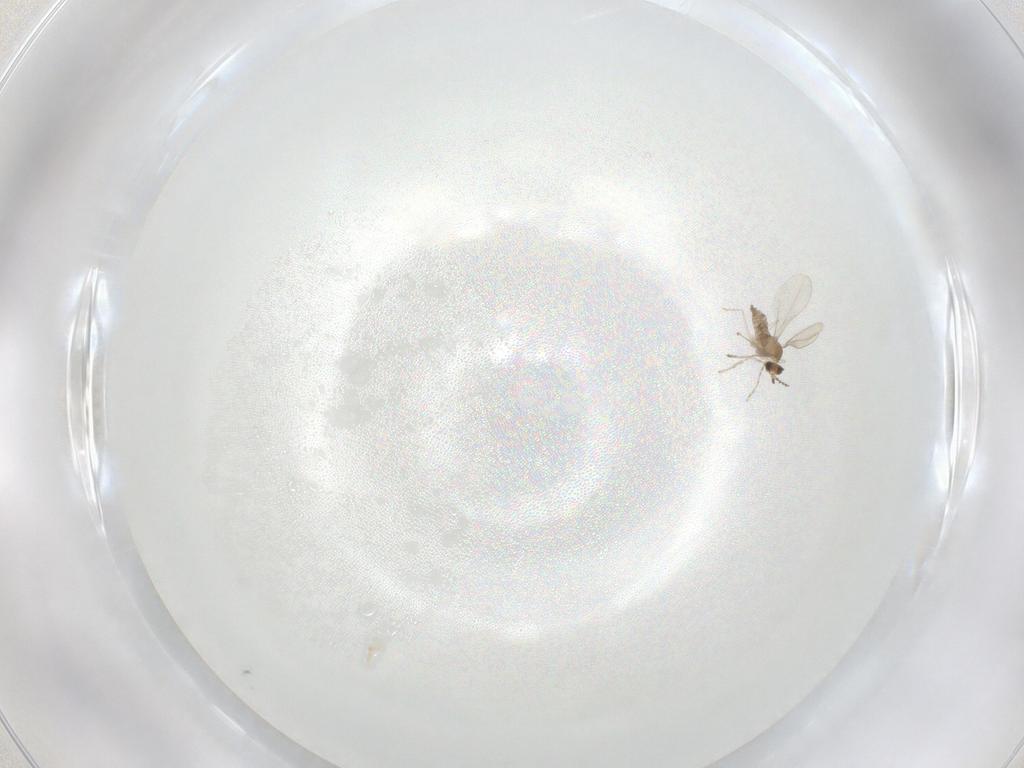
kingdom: Animalia
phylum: Arthropoda
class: Insecta
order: Diptera
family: Cecidomyiidae
